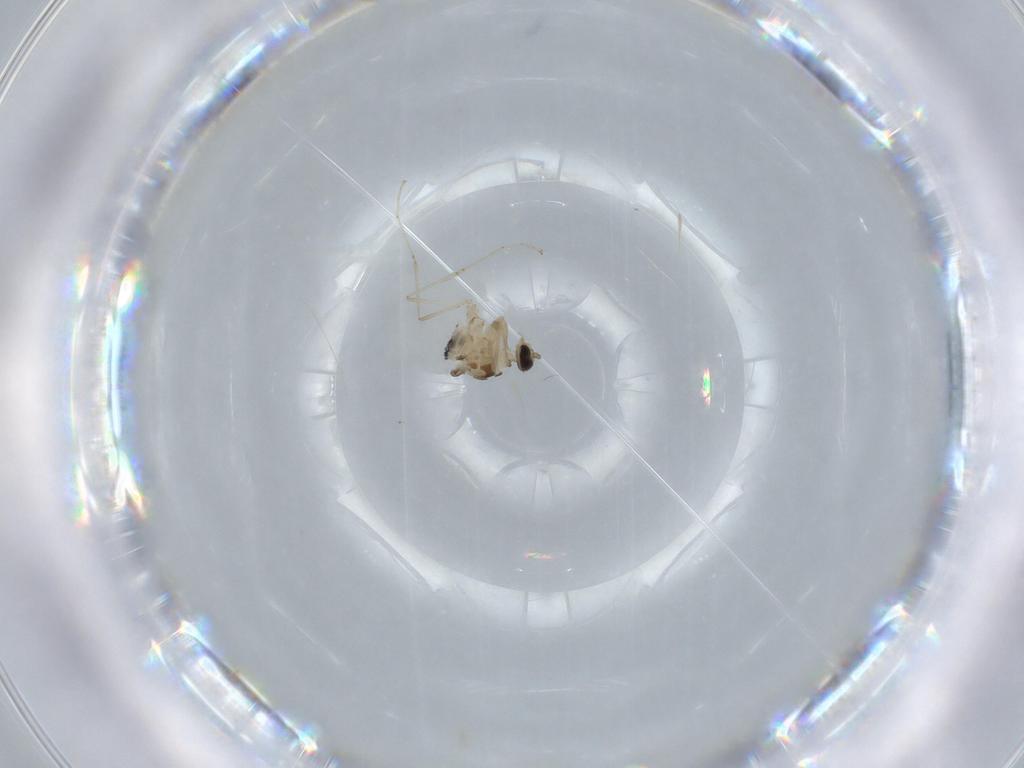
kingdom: Animalia
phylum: Arthropoda
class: Insecta
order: Diptera
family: Cecidomyiidae
